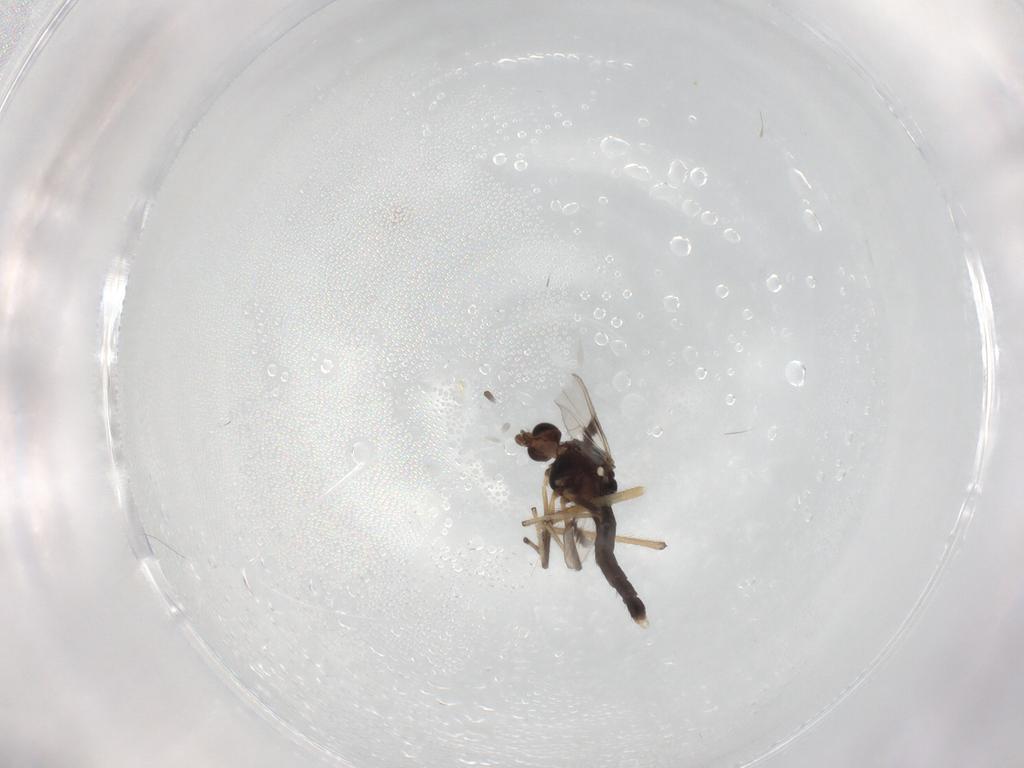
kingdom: Animalia
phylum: Arthropoda
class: Insecta
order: Diptera
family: Chironomidae
